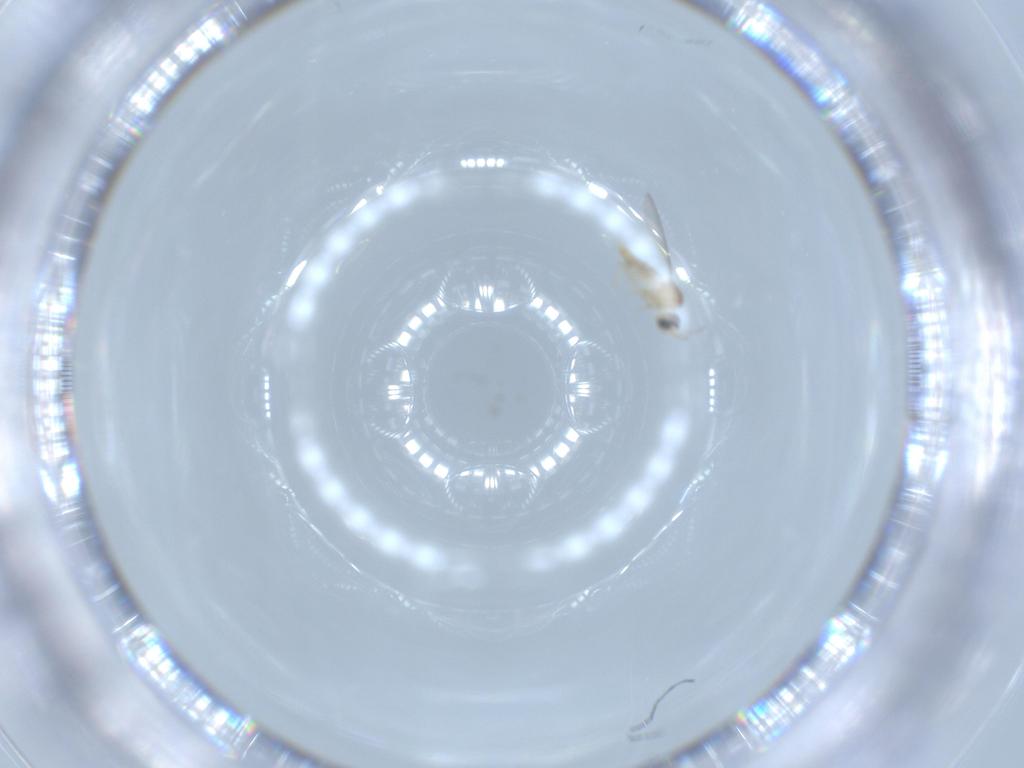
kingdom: Animalia
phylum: Arthropoda
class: Insecta
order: Diptera
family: Cecidomyiidae
